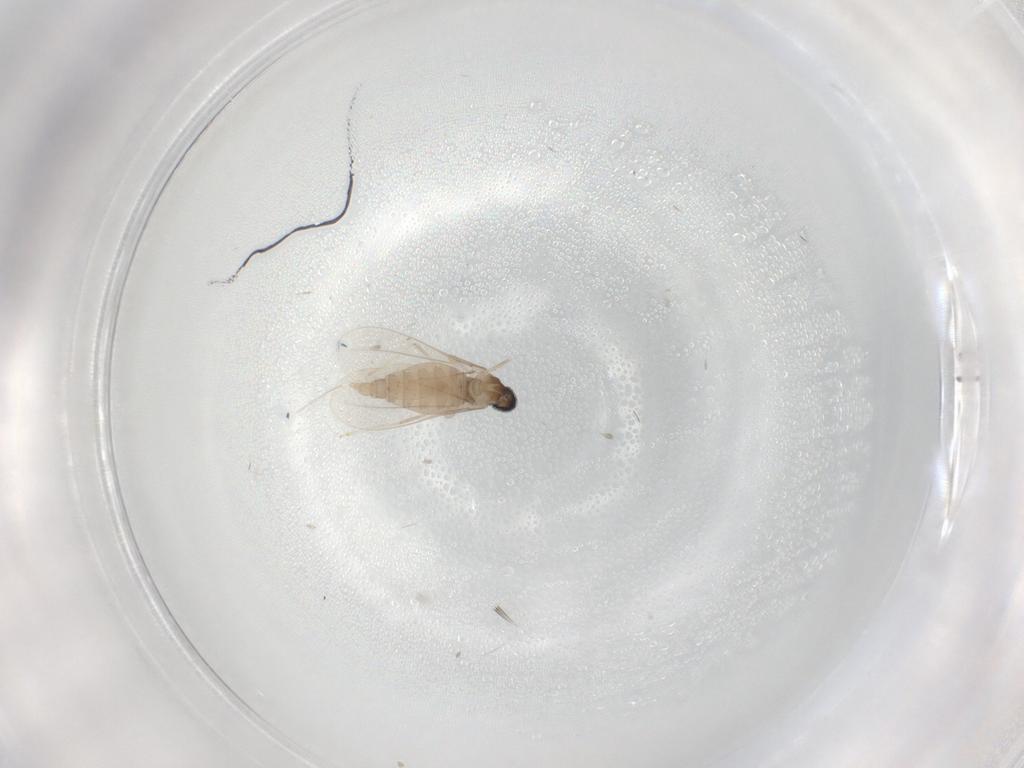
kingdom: Animalia
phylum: Arthropoda
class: Insecta
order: Diptera
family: Cecidomyiidae
